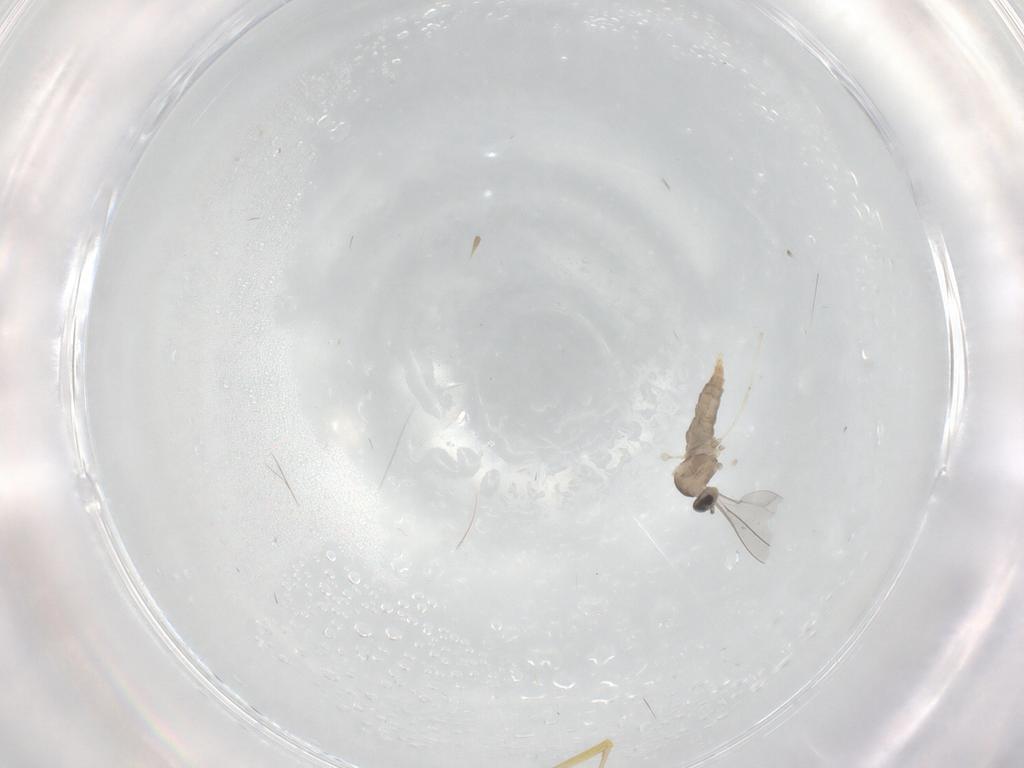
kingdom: Animalia
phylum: Arthropoda
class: Insecta
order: Diptera
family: Cecidomyiidae
